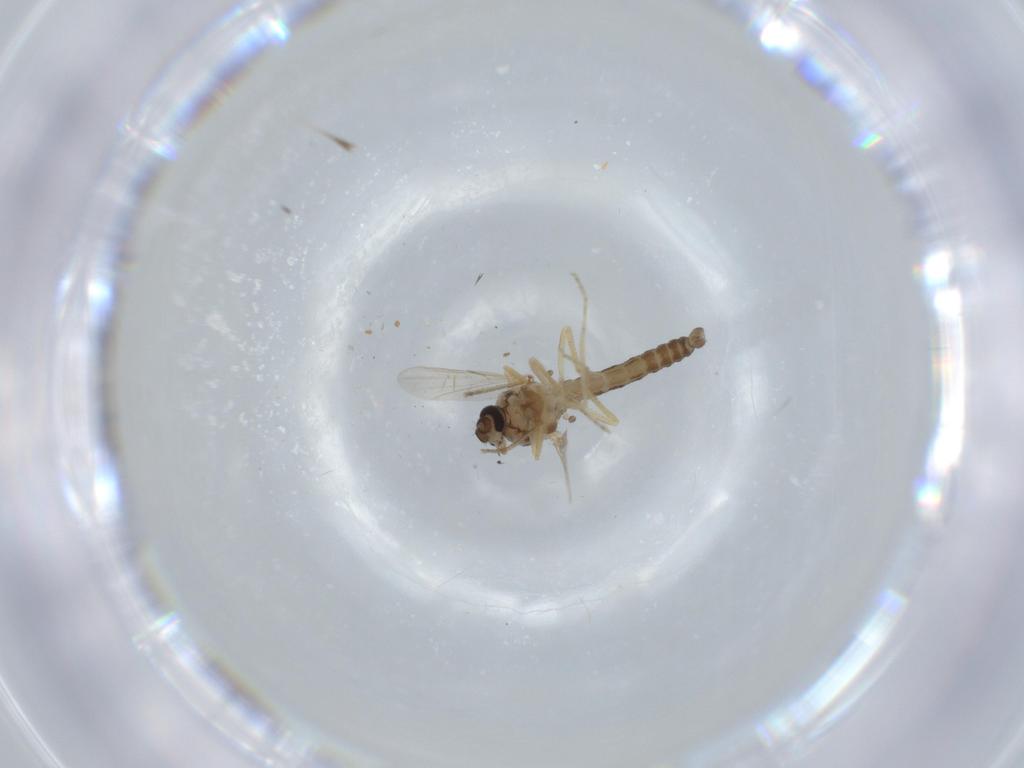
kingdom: Animalia
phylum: Arthropoda
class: Insecta
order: Diptera
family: Ceratopogonidae
